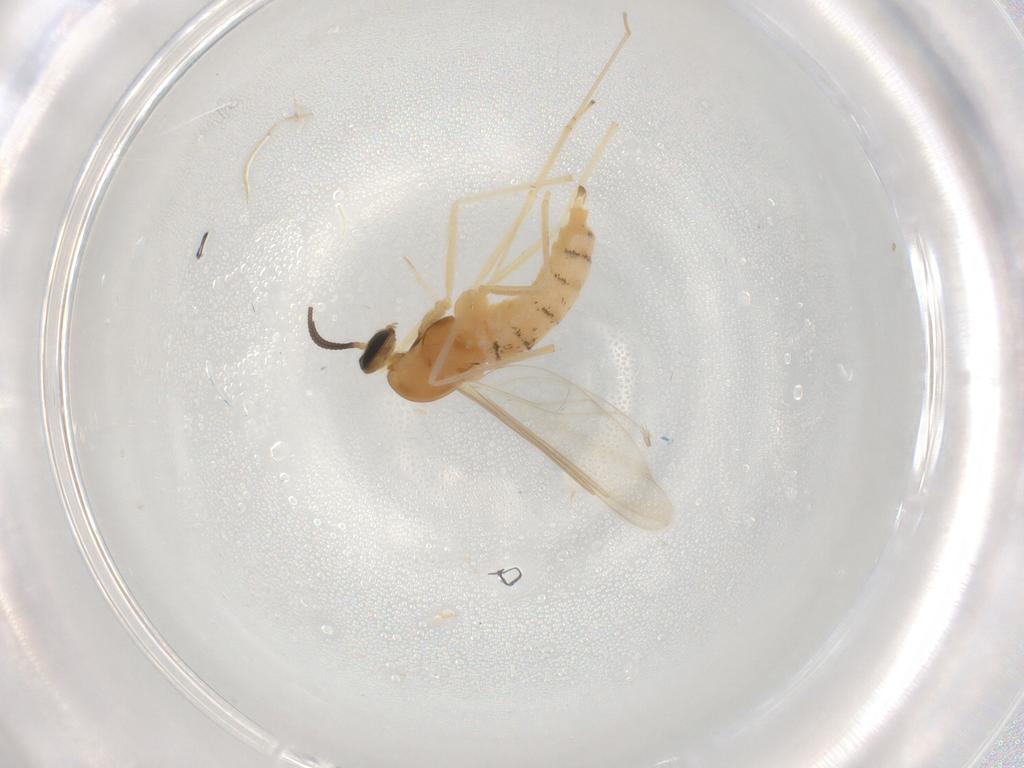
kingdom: Animalia
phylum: Arthropoda
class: Insecta
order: Diptera
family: Cecidomyiidae
